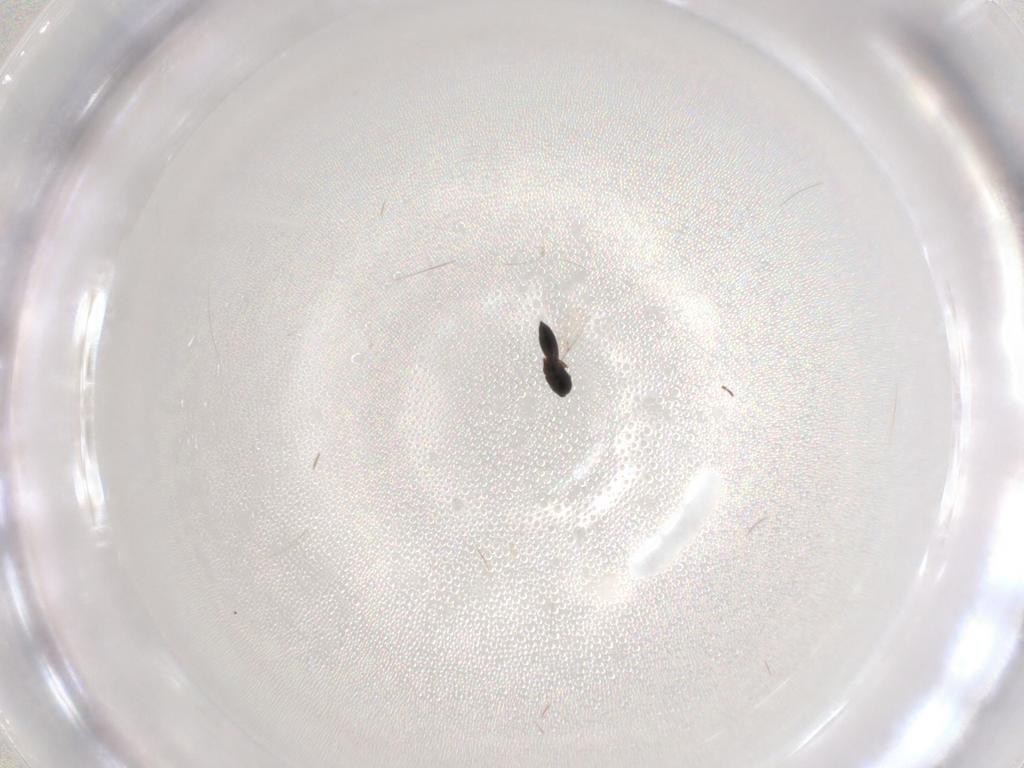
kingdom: Animalia
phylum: Arthropoda
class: Insecta
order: Hymenoptera
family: Scelionidae
